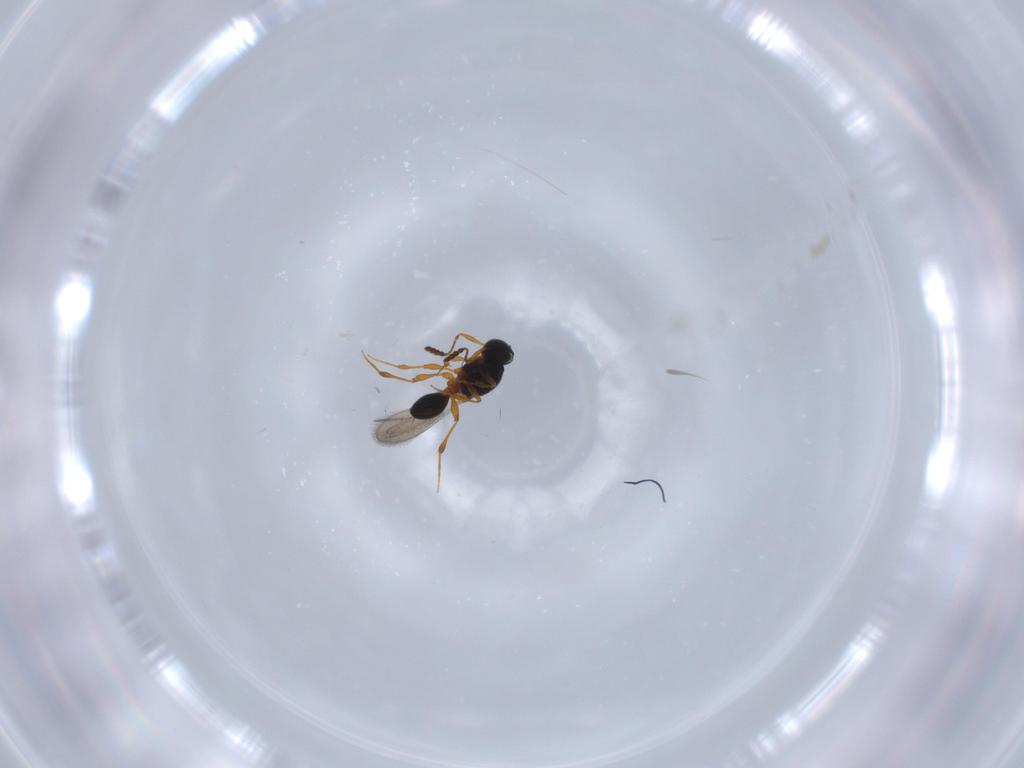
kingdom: Animalia
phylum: Arthropoda
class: Insecta
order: Hymenoptera
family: Platygastridae
